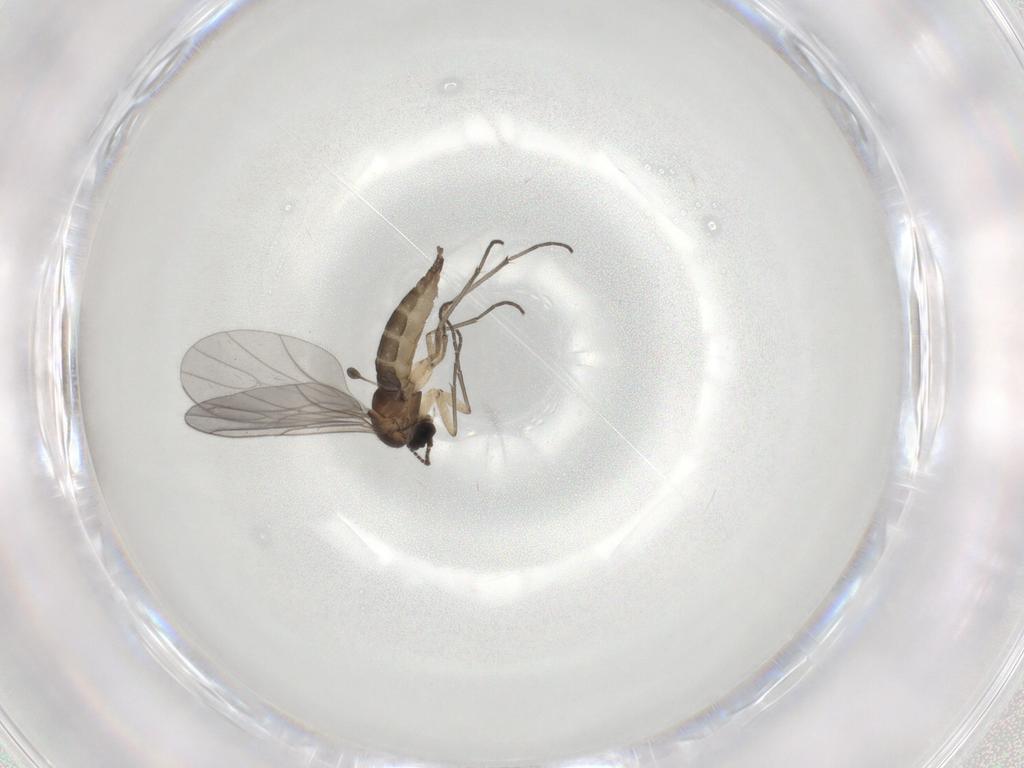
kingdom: Animalia
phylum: Arthropoda
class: Insecta
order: Diptera
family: Sciaridae
